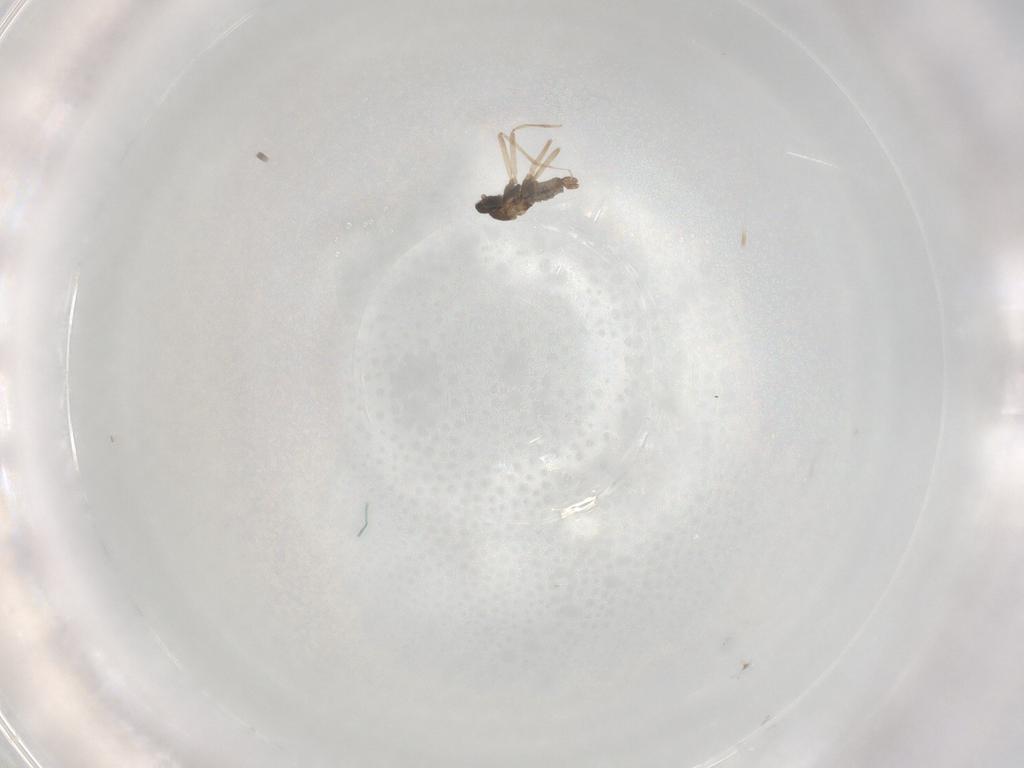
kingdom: Animalia
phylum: Arthropoda
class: Insecta
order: Diptera
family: Cecidomyiidae
